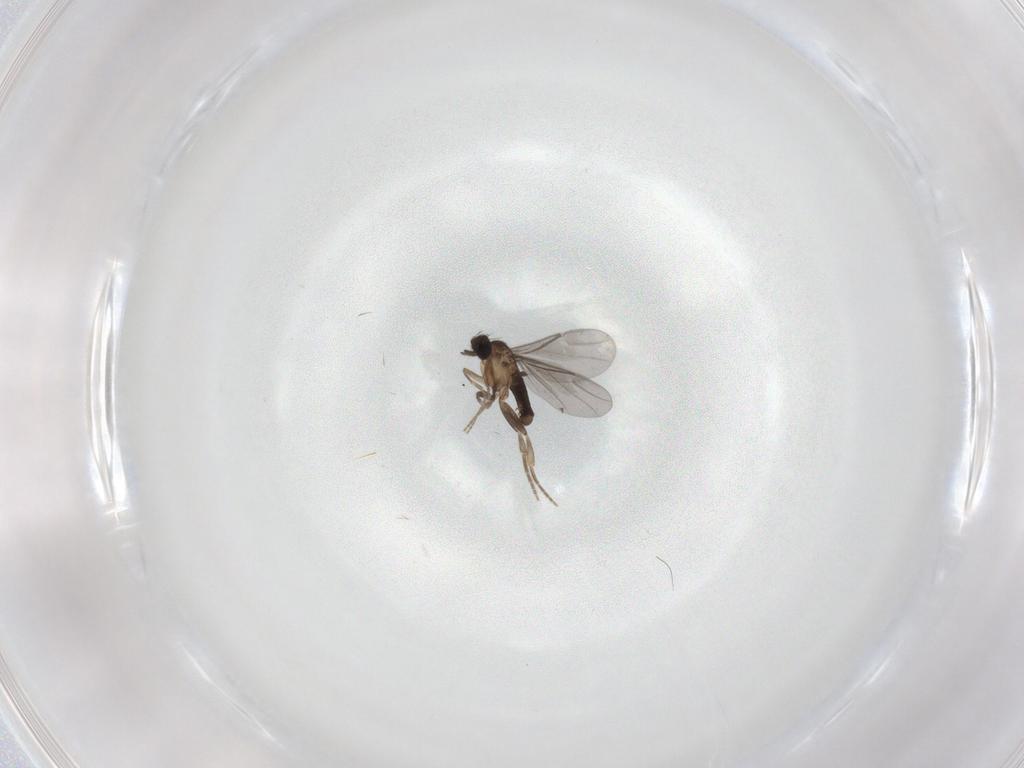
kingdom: Animalia
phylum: Arthropoda
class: Insecta
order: Diptera
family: Ceratopogonidae
